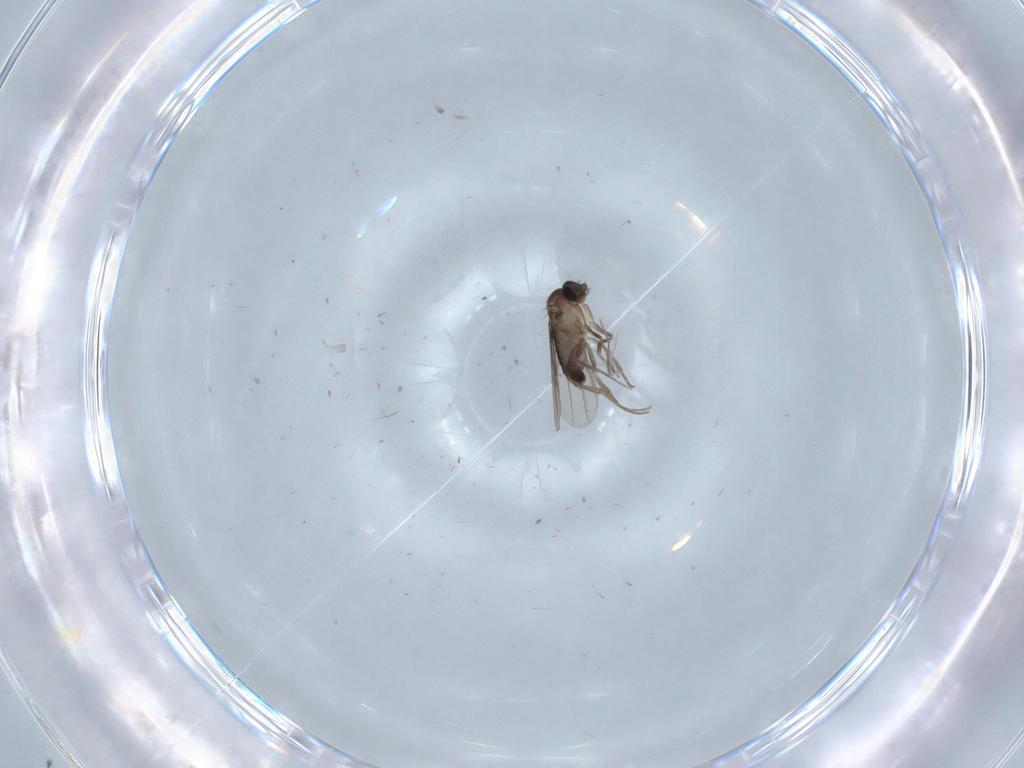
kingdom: Animalia
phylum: Arthropoda
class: Insecta
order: Diptera
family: Phoridae
